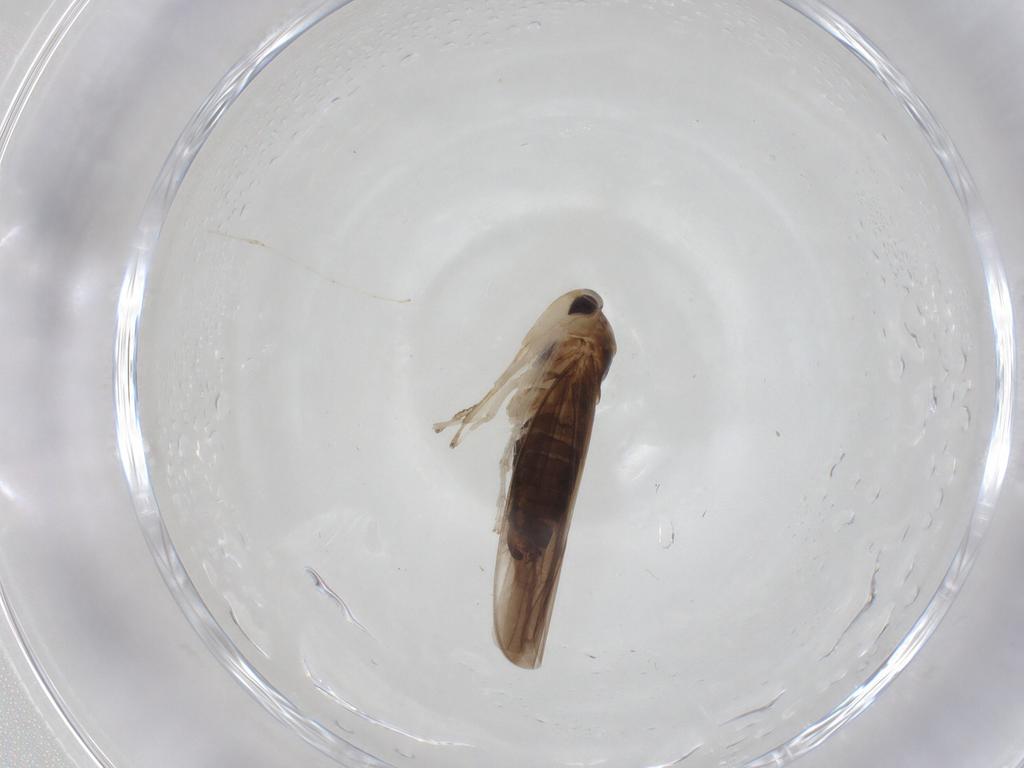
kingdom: Animalia
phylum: Arthropoda
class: Insecta
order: Hemiptera
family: Cicadellidae
